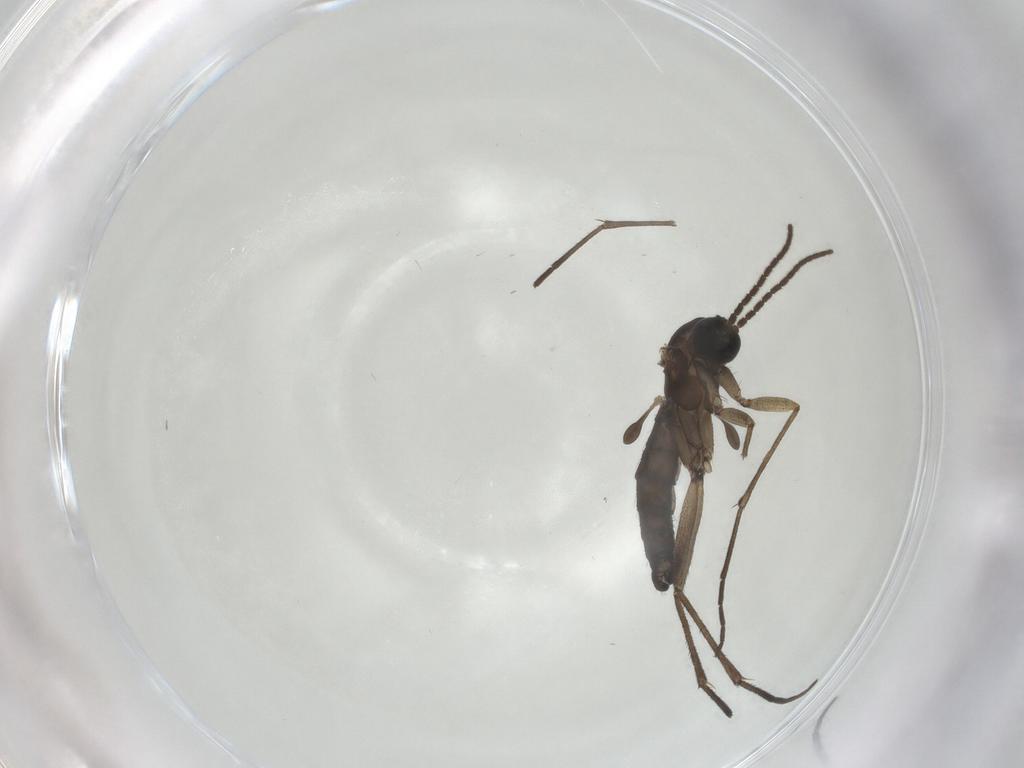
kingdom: Animalia
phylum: Arthropoda
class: Insecta
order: Diptera
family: Sciaridae
